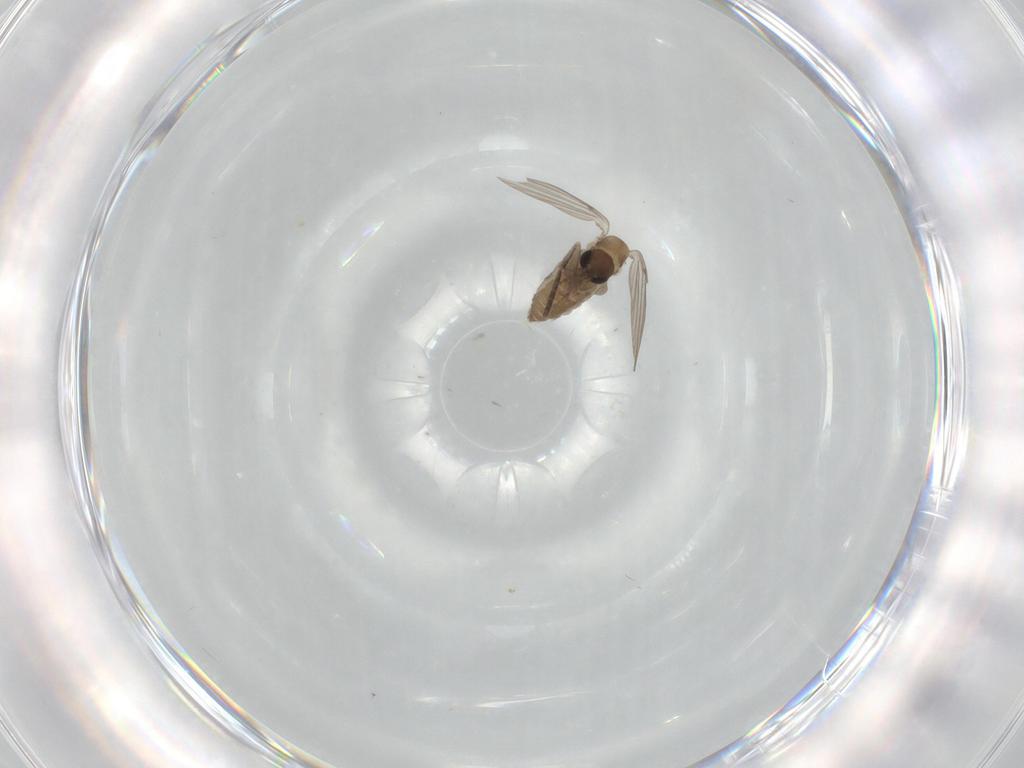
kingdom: Animalia
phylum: Arthropoda
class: Insecta
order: Diptera
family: Psychodidae
